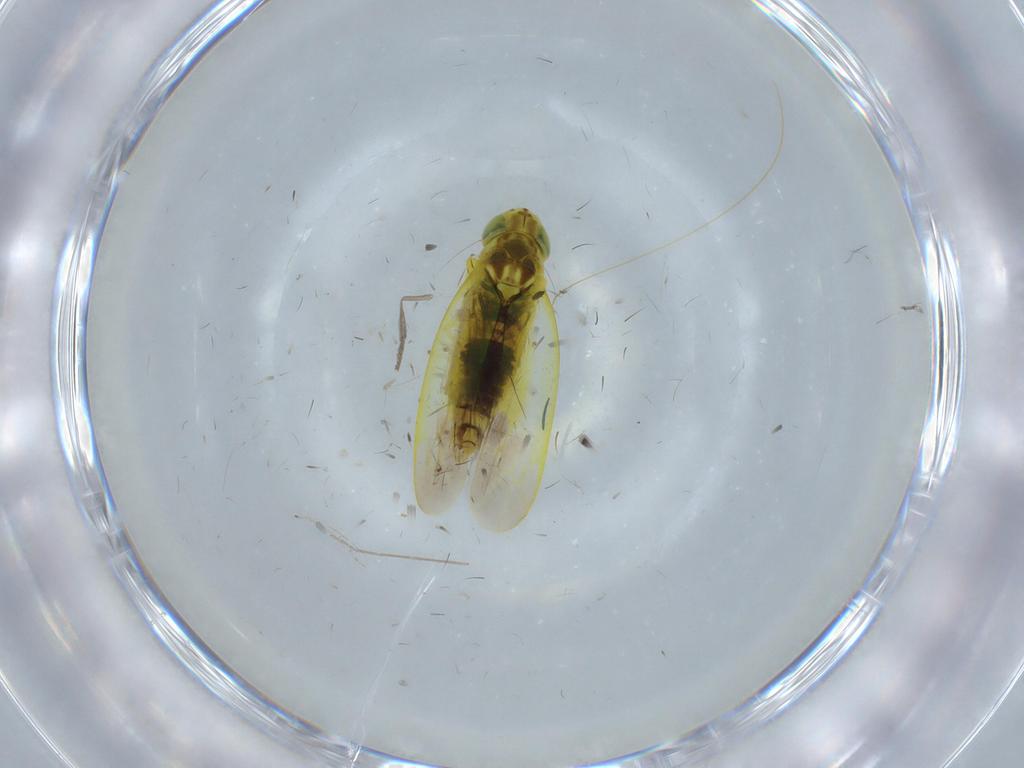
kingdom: Animalia
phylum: Arthropoda
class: Insecta
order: Hemiptera
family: Cicadellidae
